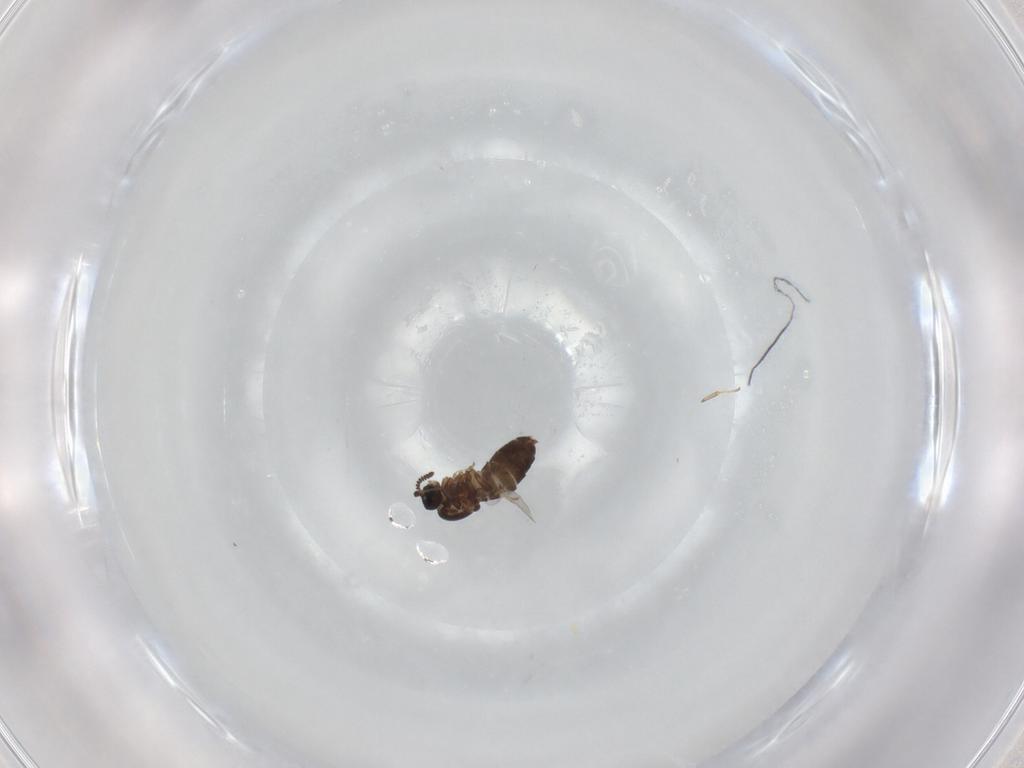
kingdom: Animalia
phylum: Arthropoda
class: Insecta
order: Diptera
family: Scatopsidae
